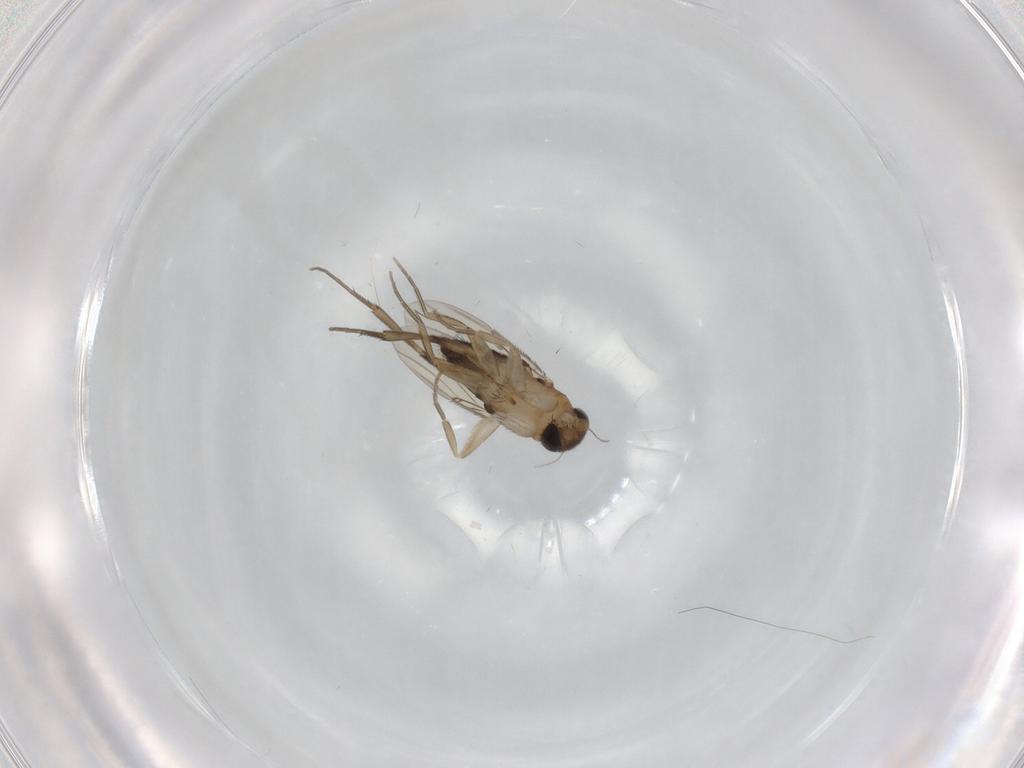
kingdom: Animalia
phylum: Arthropoda
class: Insecta
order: Diptera
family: Phoridae
